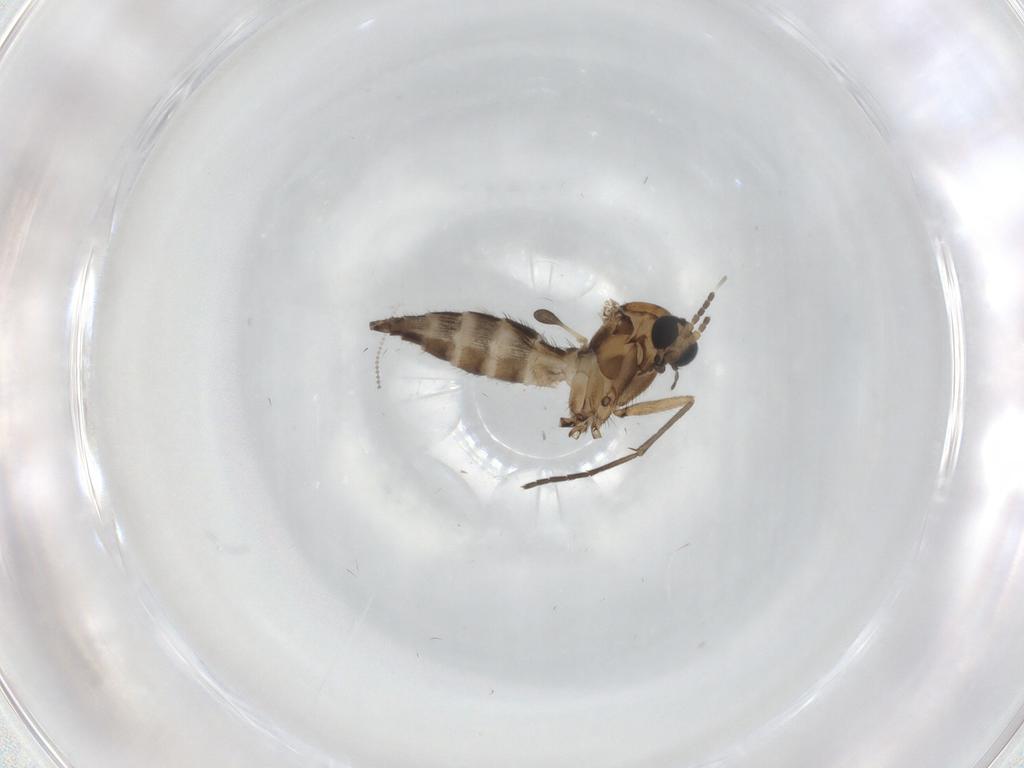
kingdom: Animalia
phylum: Arthropoda
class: Insecta
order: Diptera
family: Sciaridae
